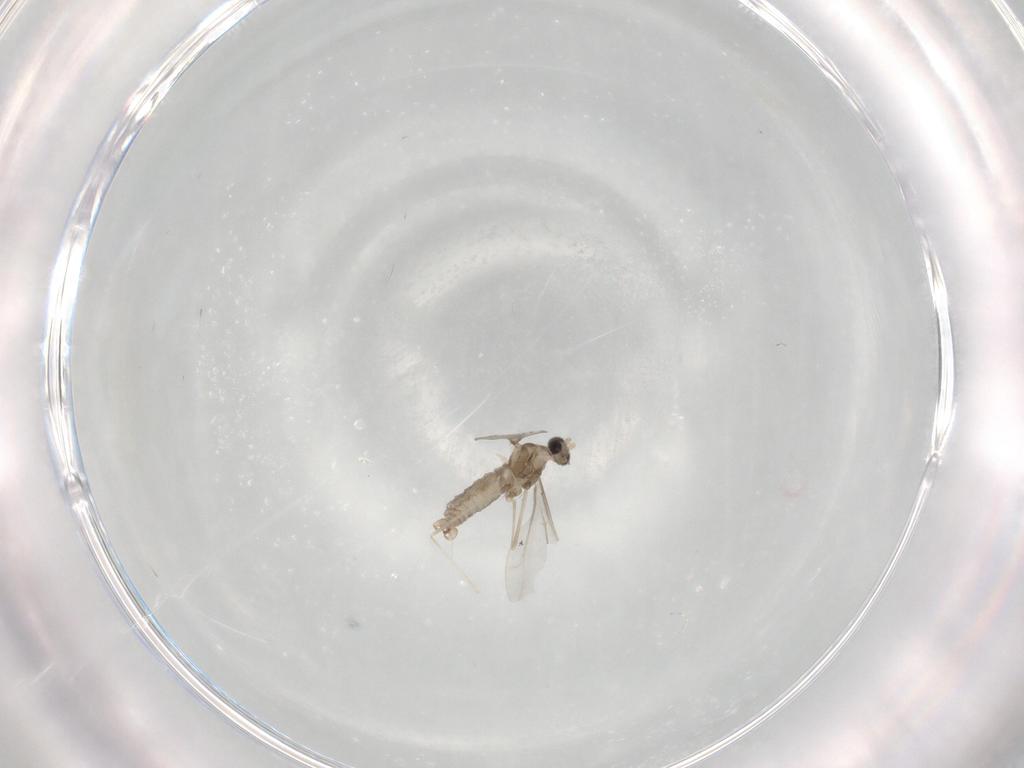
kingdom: Animalia
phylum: Arthropoda
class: Insecta
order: Diptera
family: Cecidomyiidae
